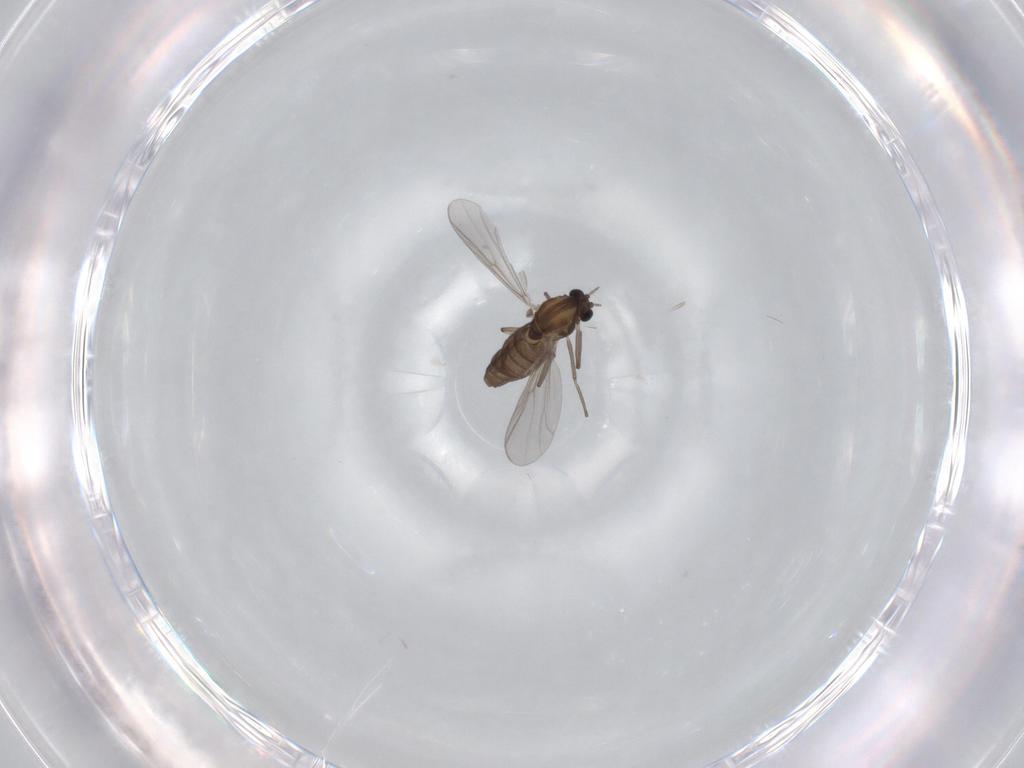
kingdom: Animalia
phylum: Arthropoda
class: Insecta
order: Diptera
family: Chironomidae
